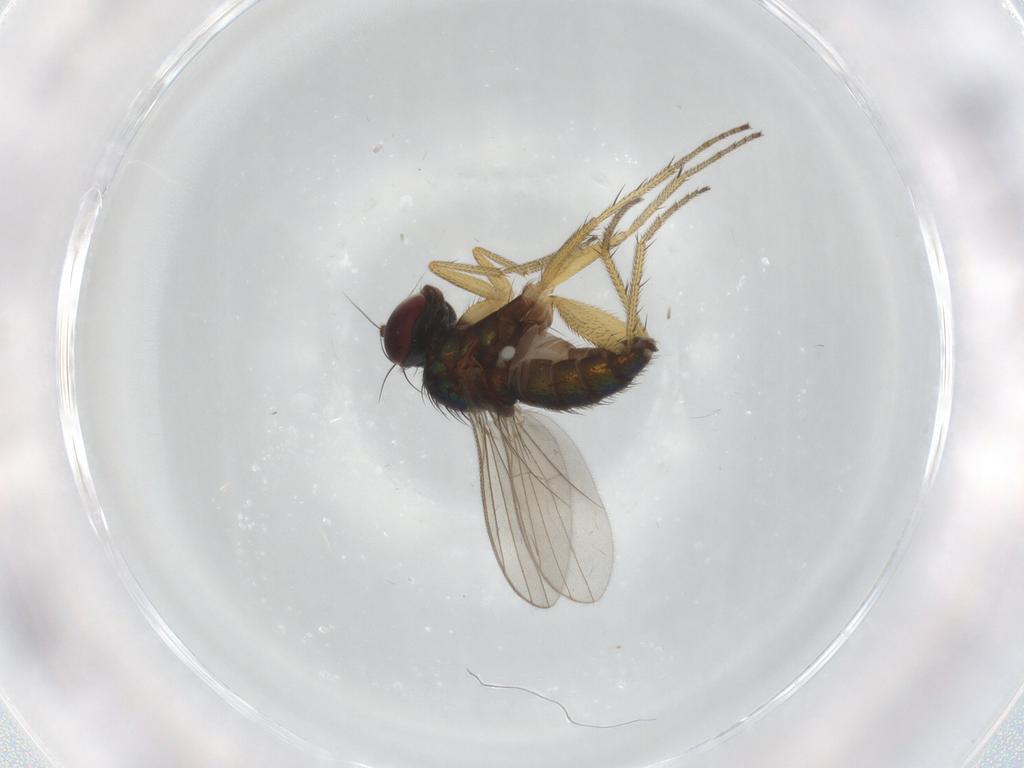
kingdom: Animalia
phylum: Arthropoda
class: Insecta
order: Diptera
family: Dolichopodidae
